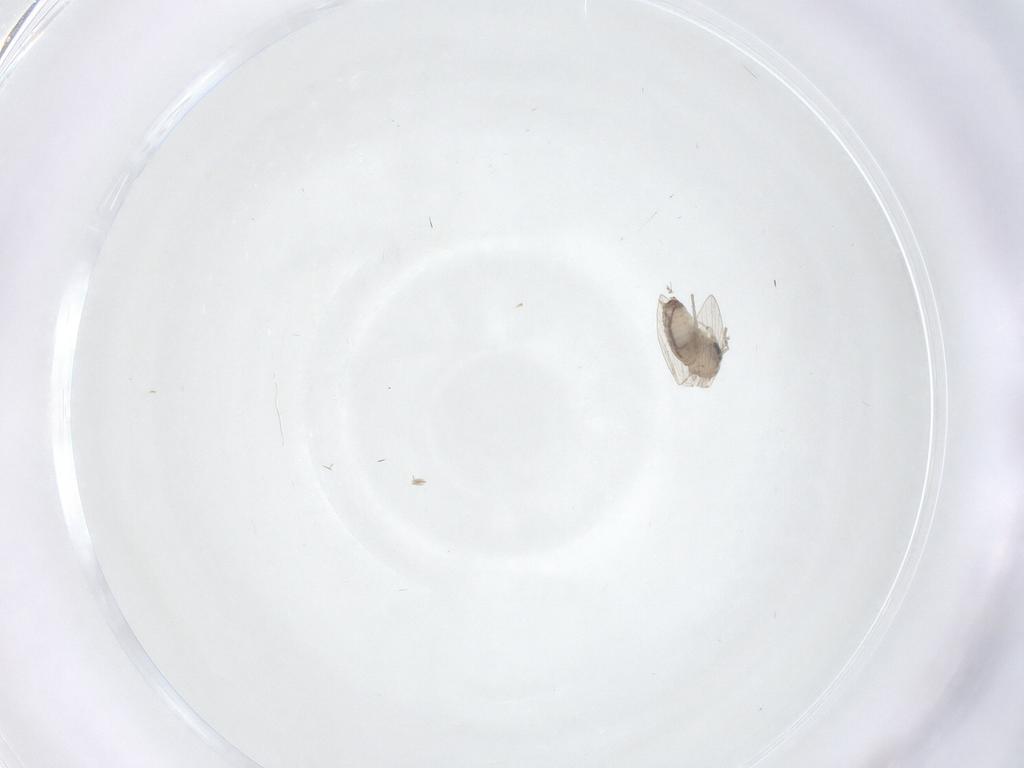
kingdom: Animalia
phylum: Arthropoda
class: Insecta
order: Diptera
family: Psychodidae
